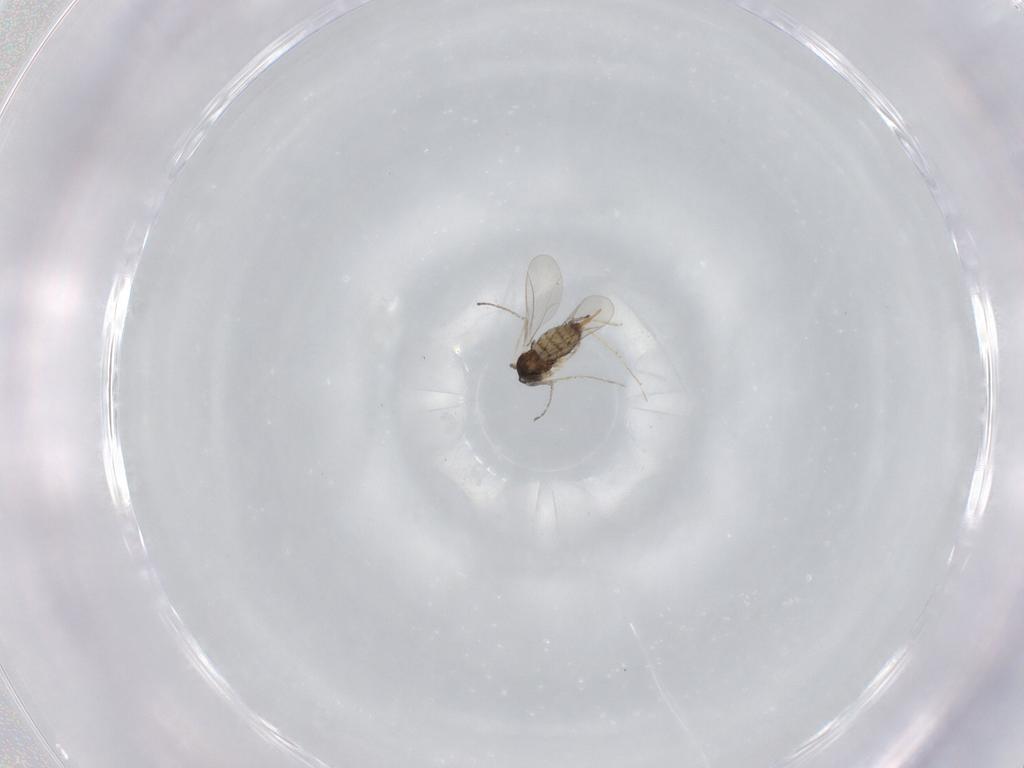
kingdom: Animalia
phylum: Arthropoda
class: Insecta
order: Diptera
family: Cecidomyiidae
